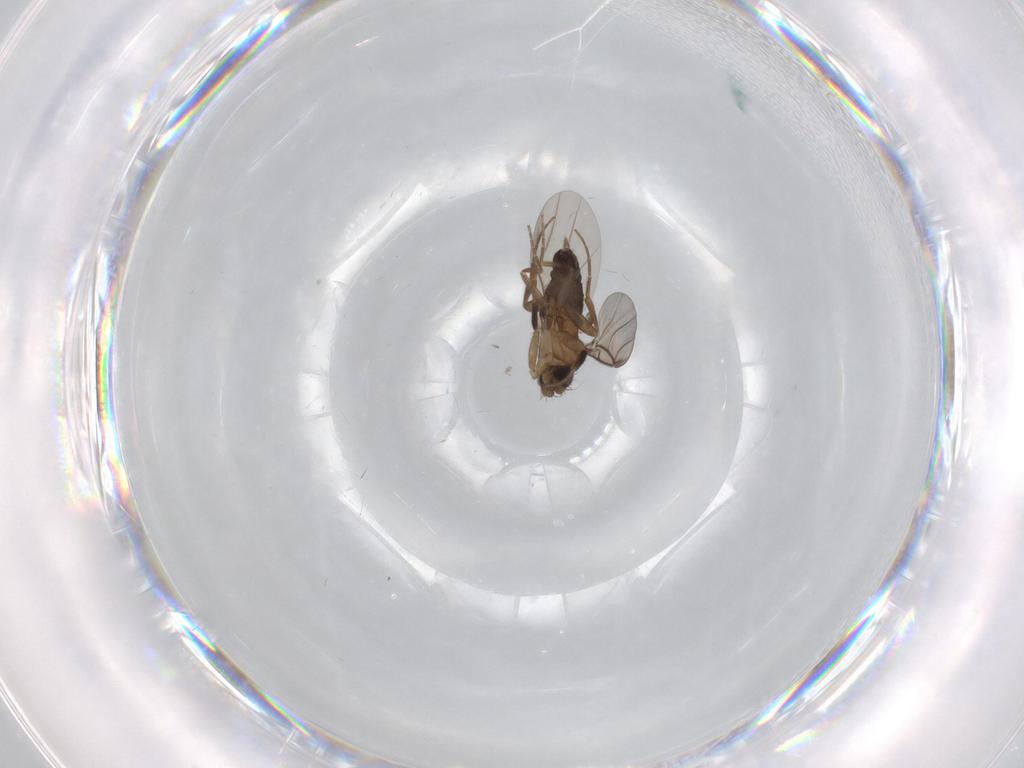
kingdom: Animalia
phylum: Arthropoda
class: Insecta
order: Diptera
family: Phoridae
